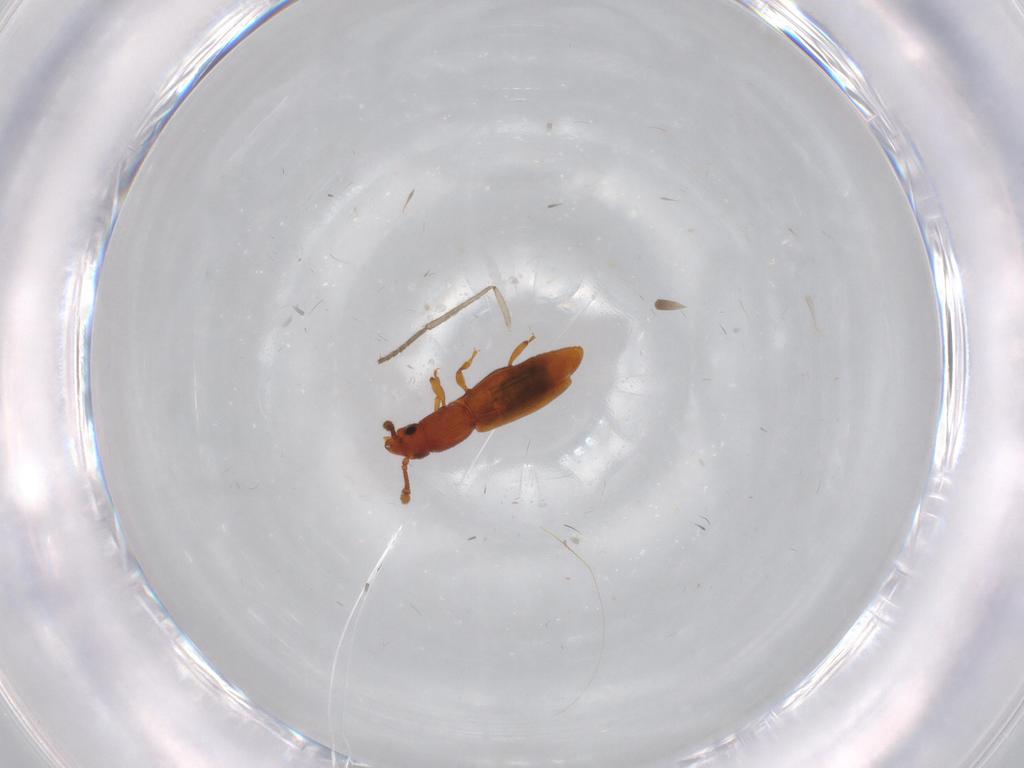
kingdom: Animalia
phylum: Arthropoda
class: Insecta
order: Coleoptera
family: Monotomidae
